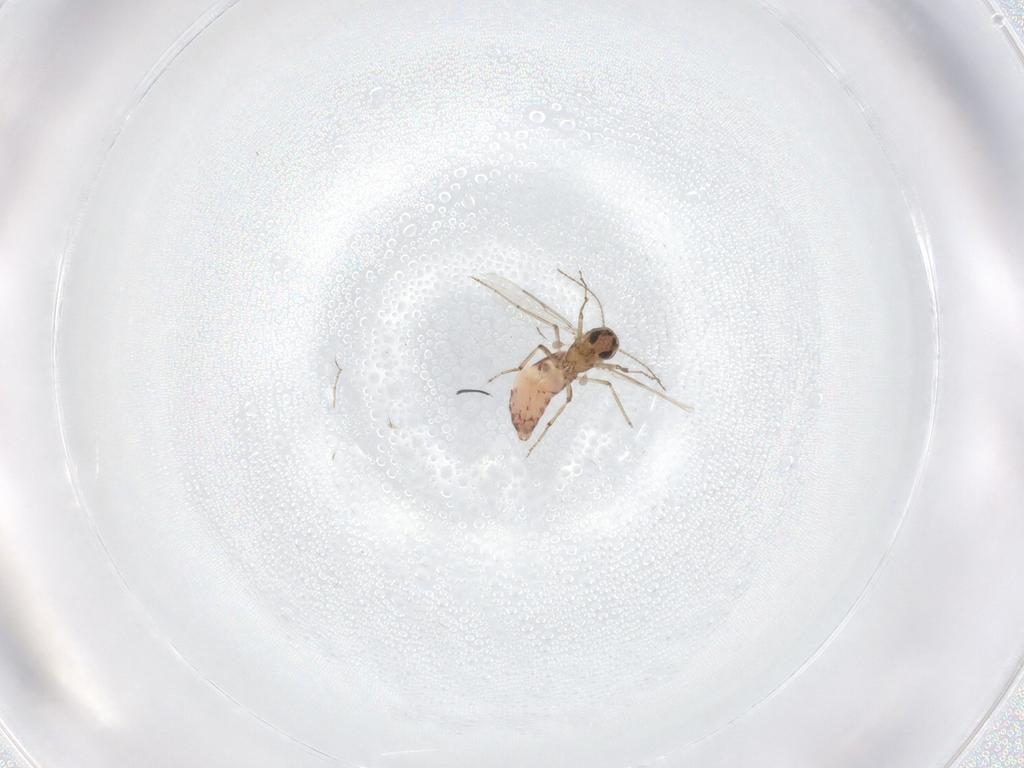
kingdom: Animalia
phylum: Arthropoda
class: Insecta
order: Diptera
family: Ceratopogonidae
